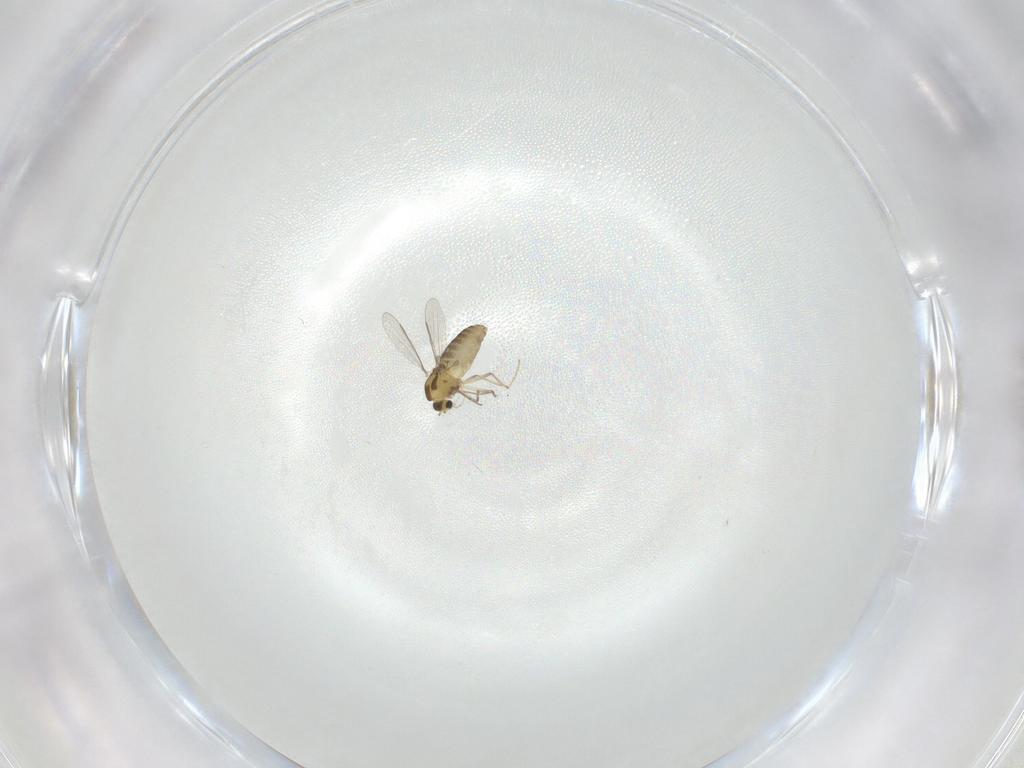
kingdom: Animalia
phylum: Arthropoda
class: Insecta
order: Diptera
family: Chironomidae
